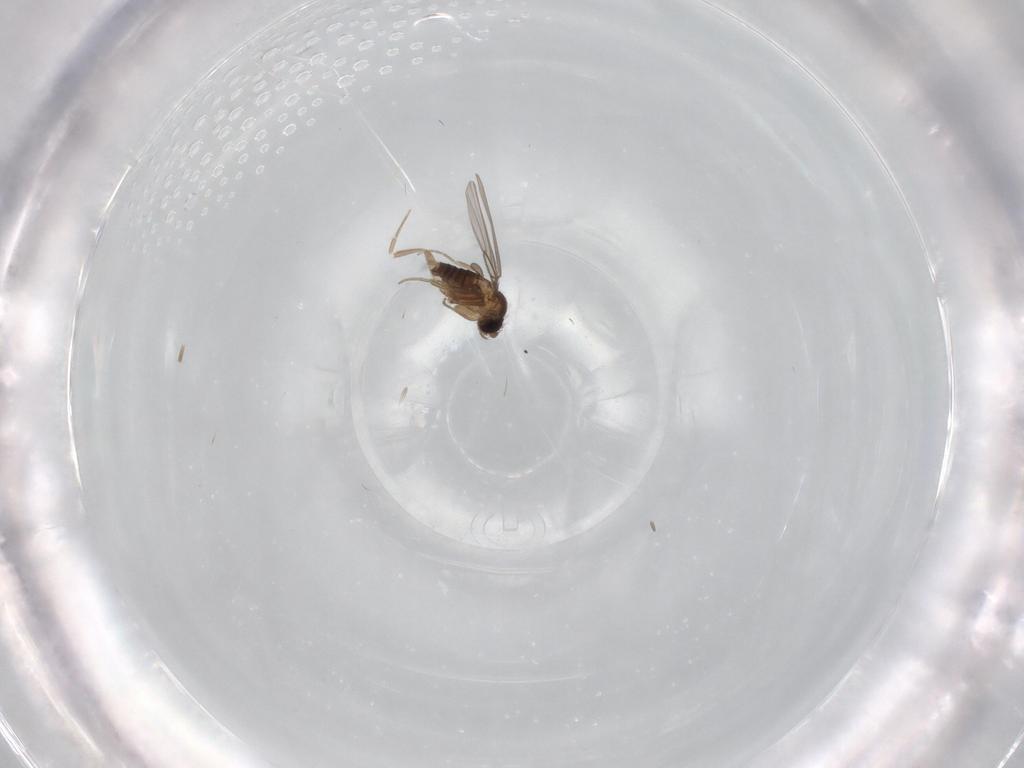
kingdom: Animalia
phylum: Arthropoda
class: Insecta
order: Diptera
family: Phoridae
